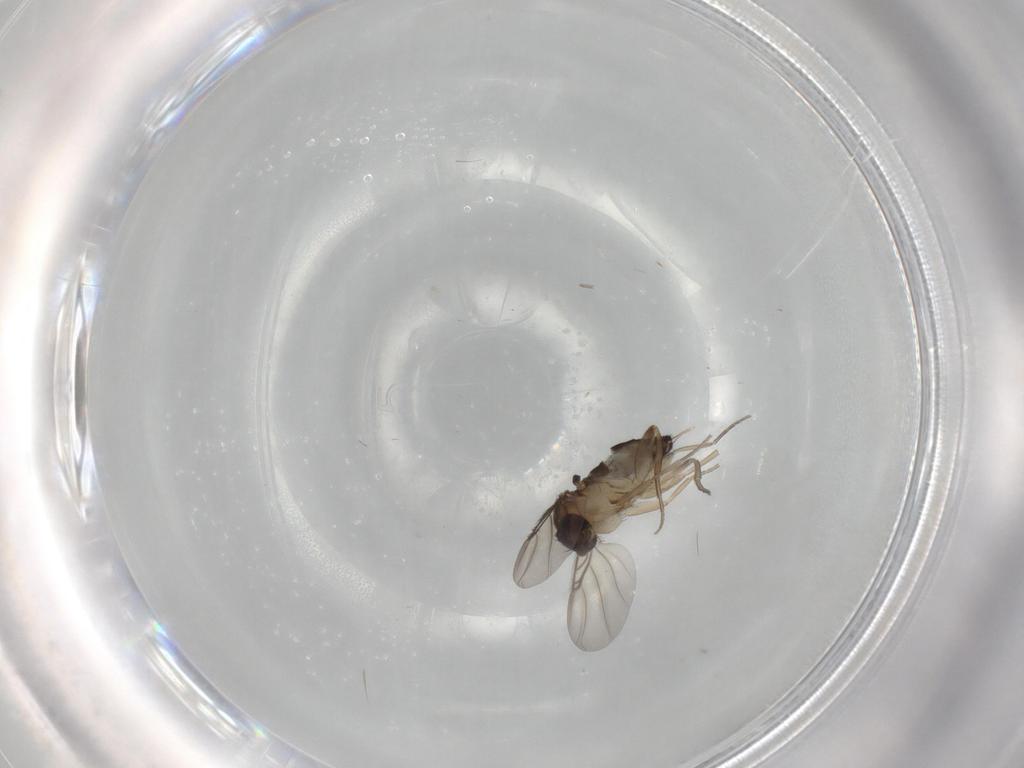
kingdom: Animalia
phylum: Arthropoda
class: Insecta
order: Diptera
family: Phoridae
